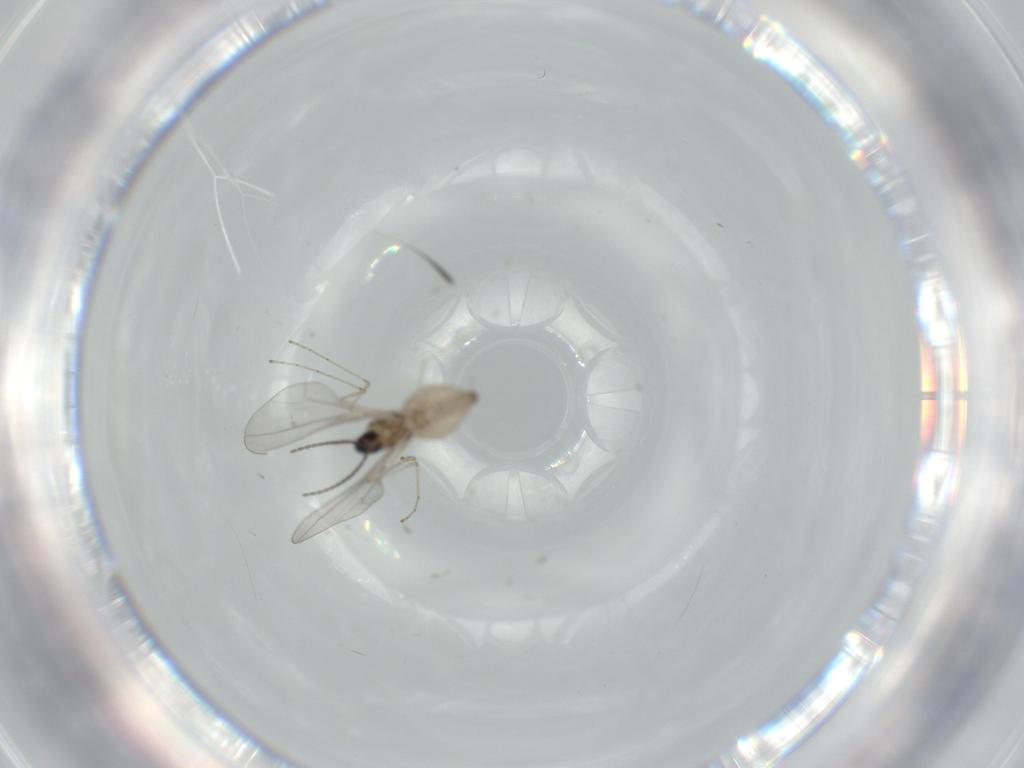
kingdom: Animalia
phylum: Arthropoda
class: Insecta
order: Diptera
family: Cecidomyiidae
